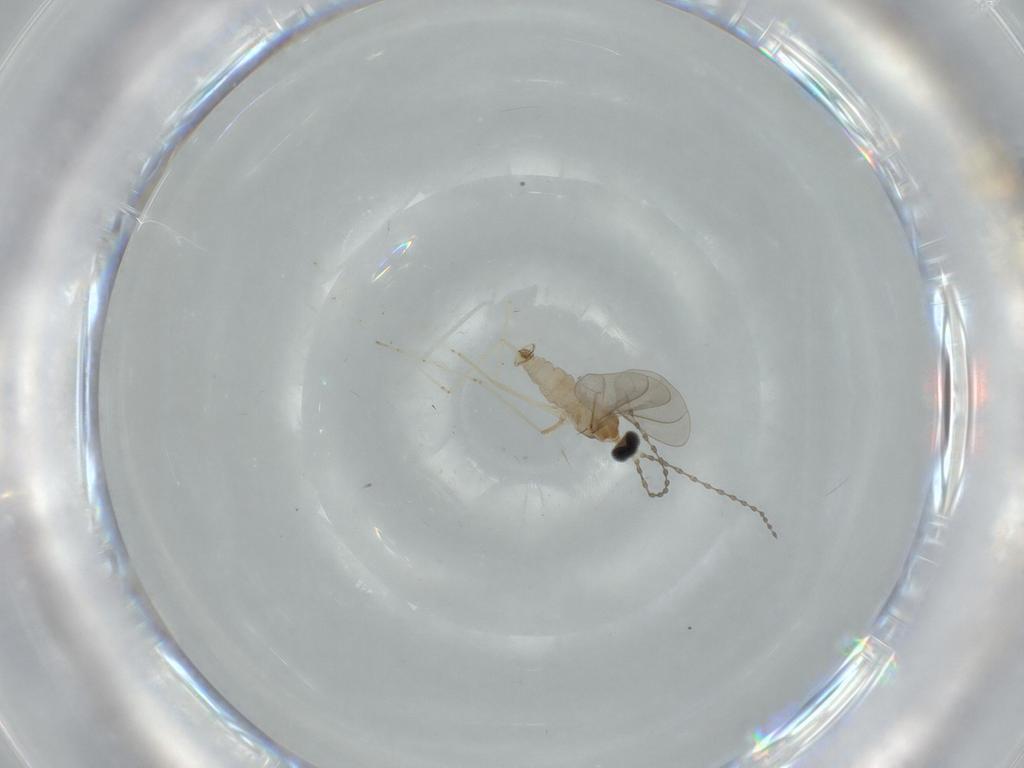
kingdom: Animalia
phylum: Arthropoda
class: Insecta
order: Diptera
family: Cecidomyiidae
